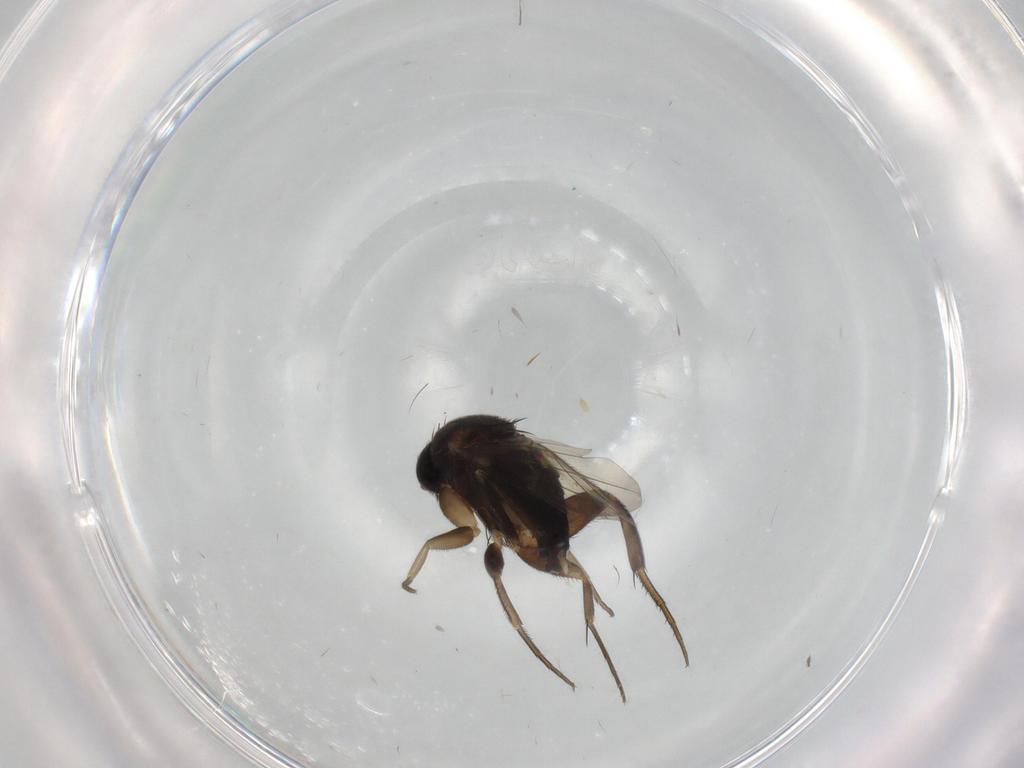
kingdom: Animalia
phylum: Arthropoda
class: Insecta
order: Diptera
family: Phoridae
